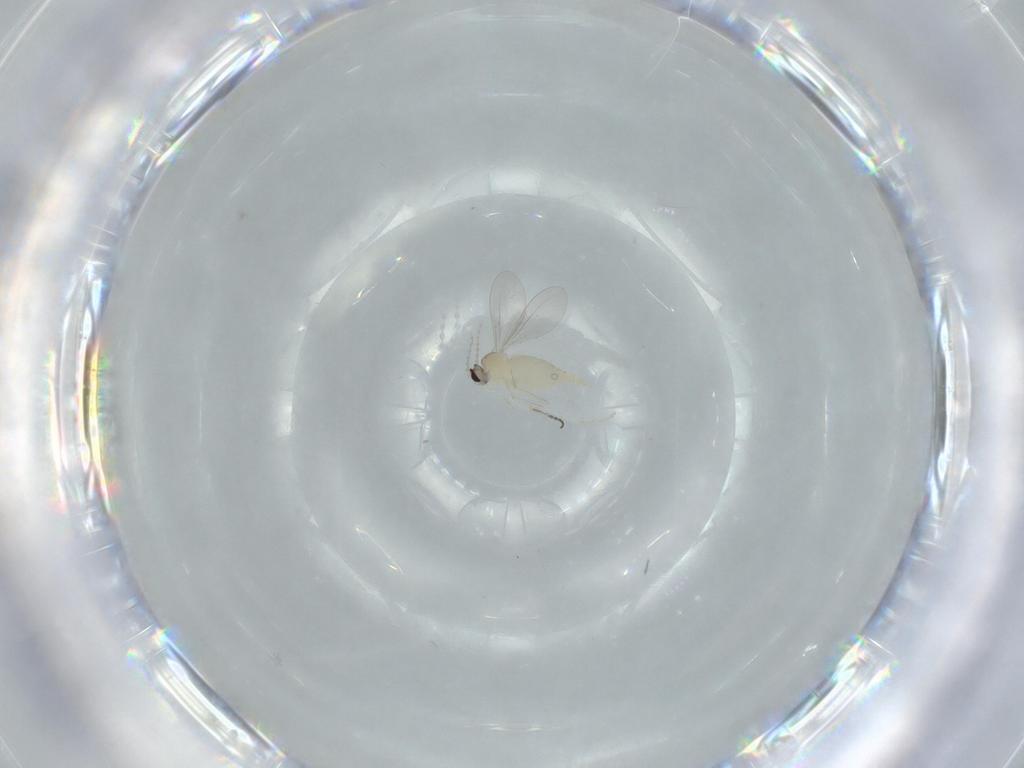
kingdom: Animalia
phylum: Arthropoda
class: Insecta
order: Diptera
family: Cecidomyiidae
